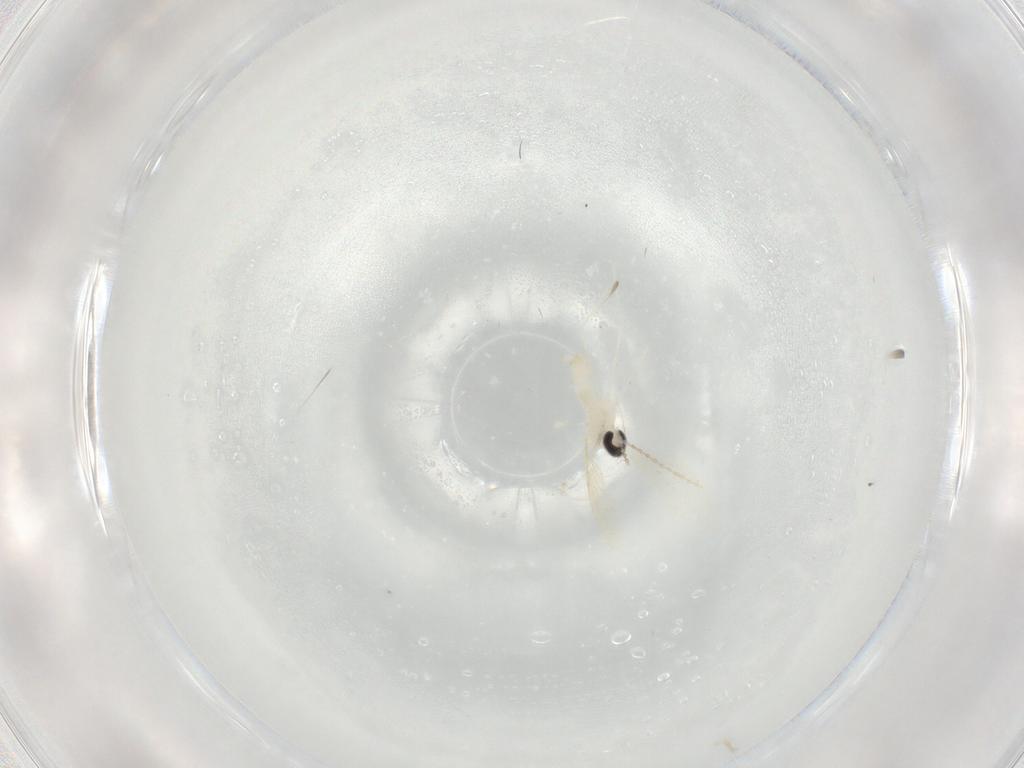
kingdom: Animalia
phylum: Arthropoda
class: Insecta
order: Diptera
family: Cecidomyiidae
